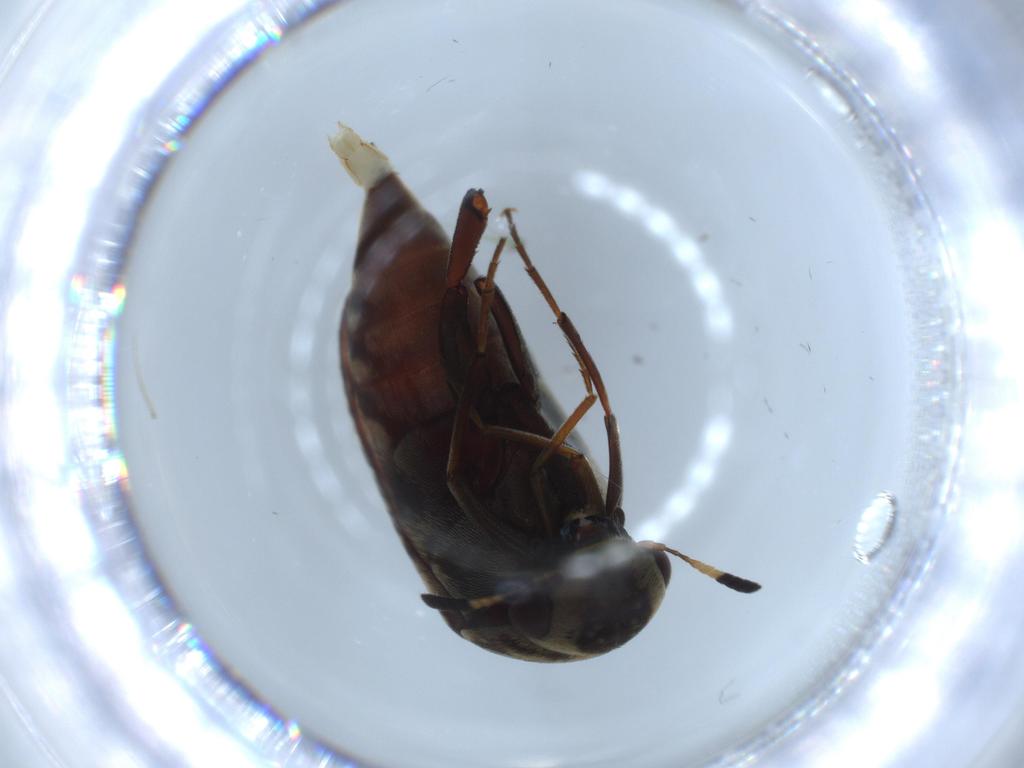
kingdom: Animalia
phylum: Arthropoda
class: Insecta
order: Coleoptera
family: Curculionidae
